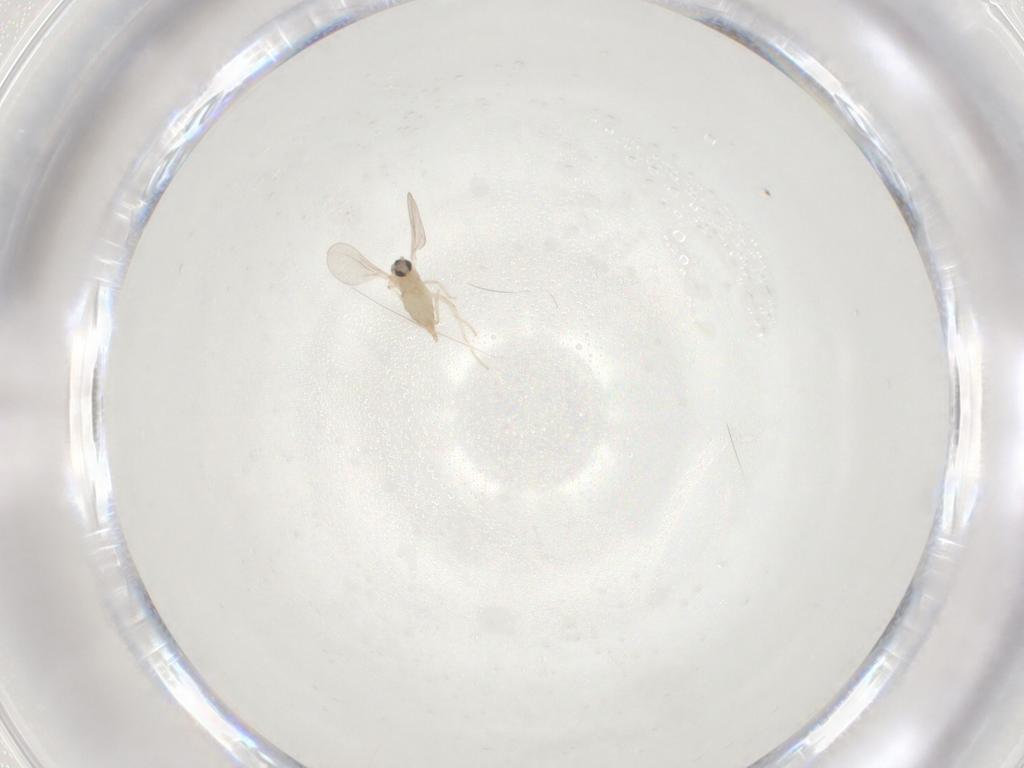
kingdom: Animalia
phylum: Arthropoda
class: Insecta
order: Diptera
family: Cecidomyiidae
